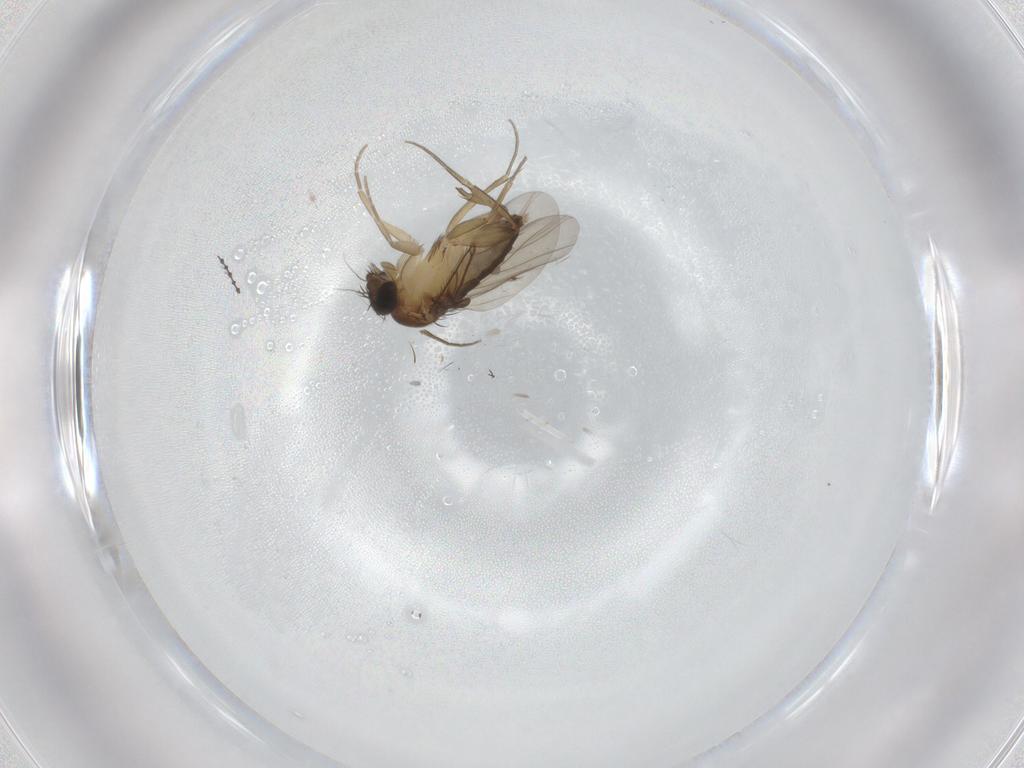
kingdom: Animalia
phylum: Arthropoda
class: Insecta
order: Diptera
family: Phoridae
